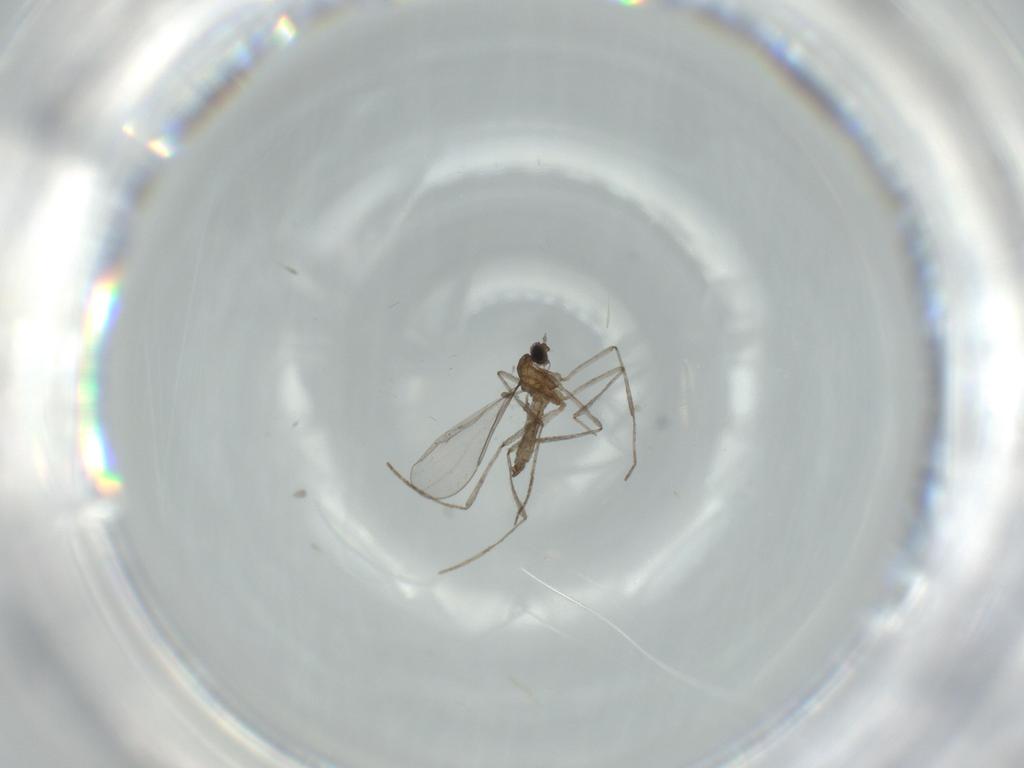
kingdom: Animalia
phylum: Arthropoda
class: Insecta
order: Diptera
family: Cecidomyiidae
